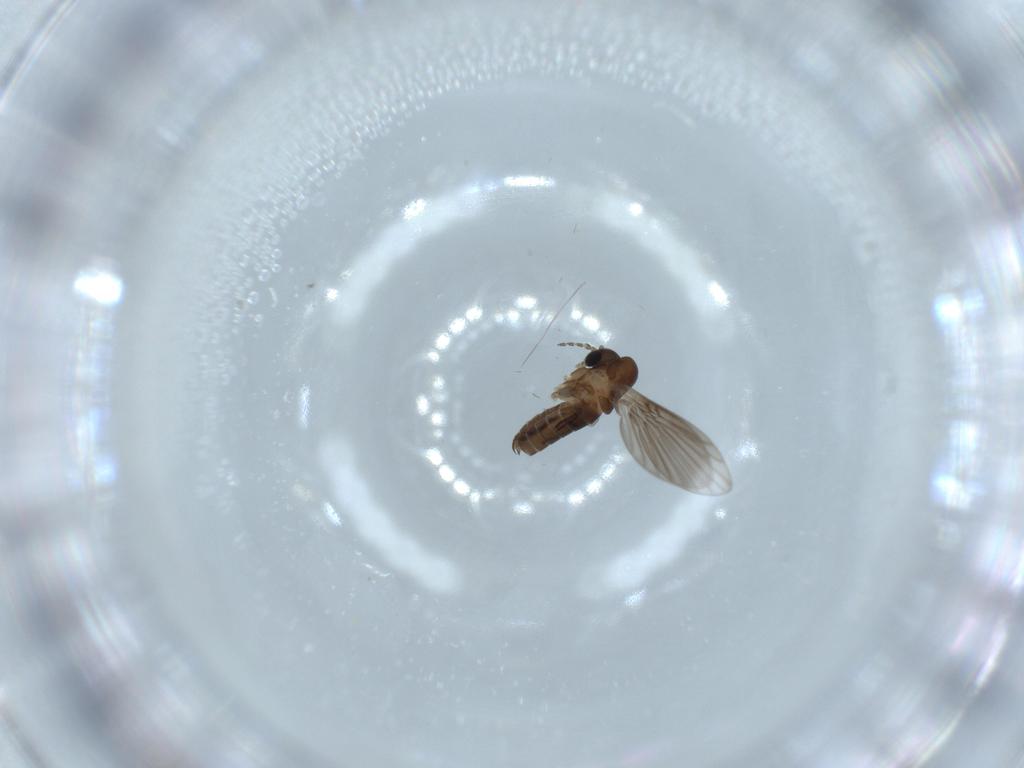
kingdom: Animalia
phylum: Arthropoda
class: Insecta
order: Diptera
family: Psychodidae
